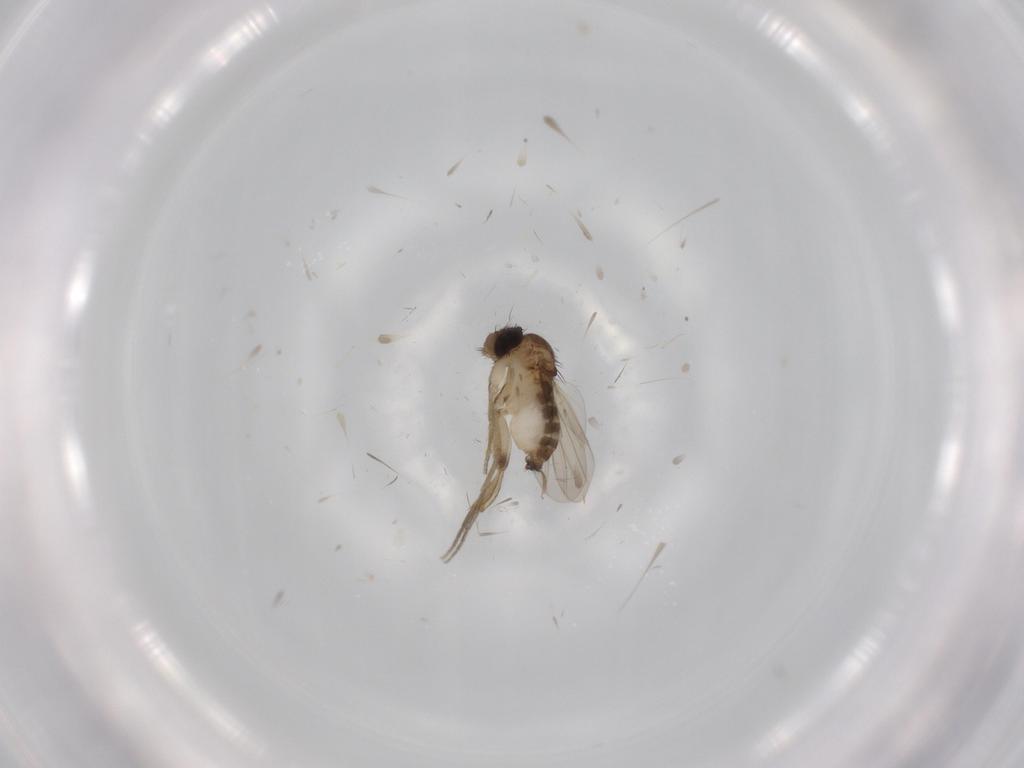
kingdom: Animalia
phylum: Arthropoda
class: Insecta
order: Diptera
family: Phoridae
